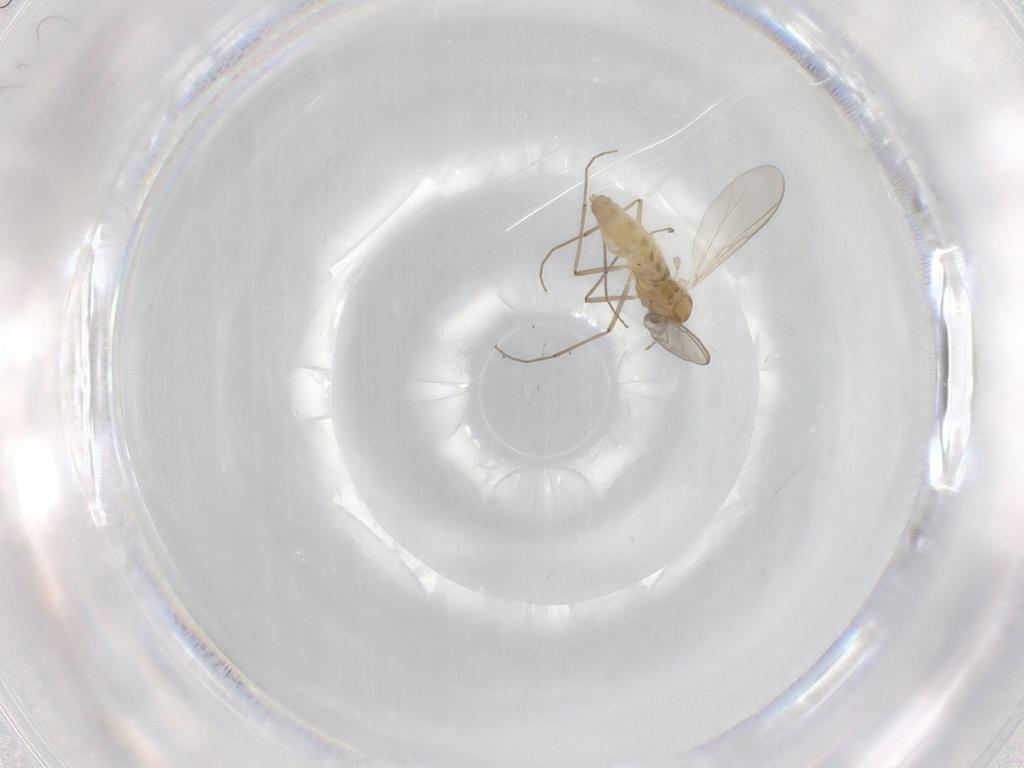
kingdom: Animalia
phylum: Arthropoda
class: Insecta
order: Diptera
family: Chironomidae
